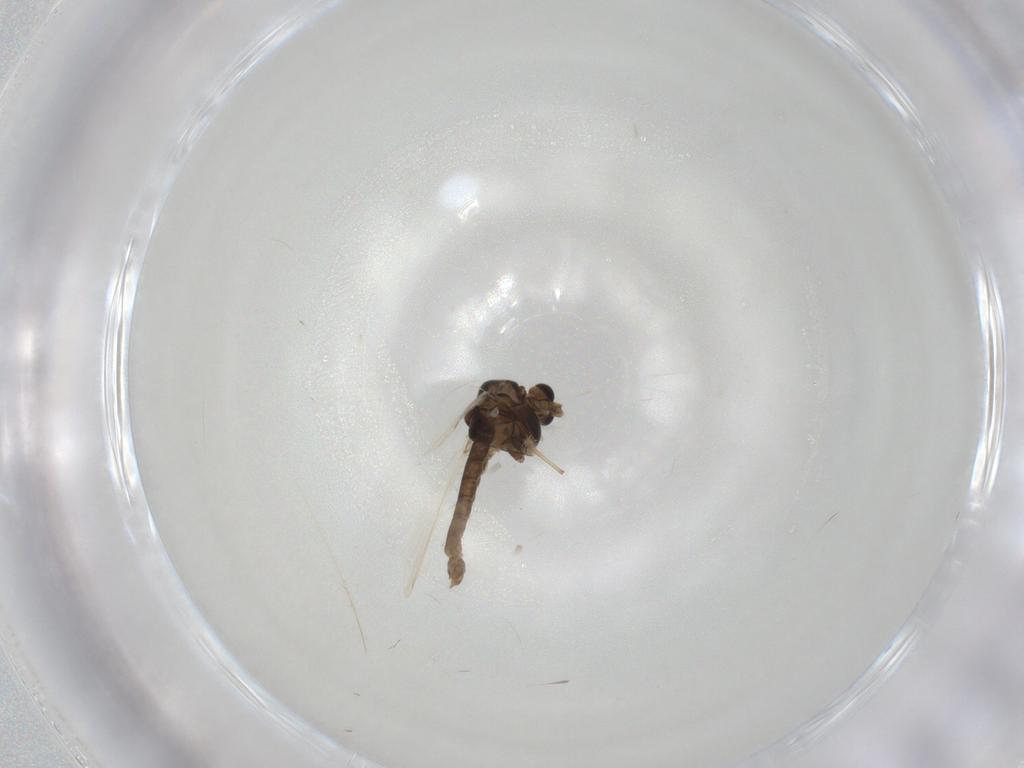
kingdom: Animalia
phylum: Arthropoda
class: Insecta
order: Diptera
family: Chironomidae
